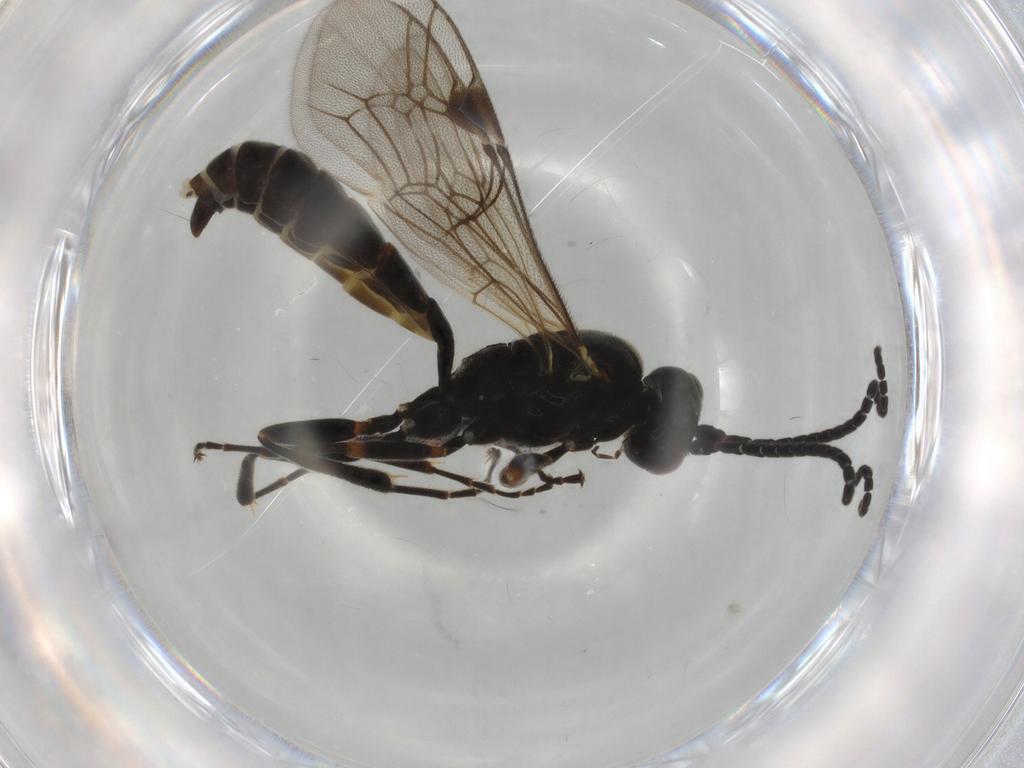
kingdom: Animalia
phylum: Arthropoda
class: Insecta
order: Hymenoptera
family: Ichneumonidae
